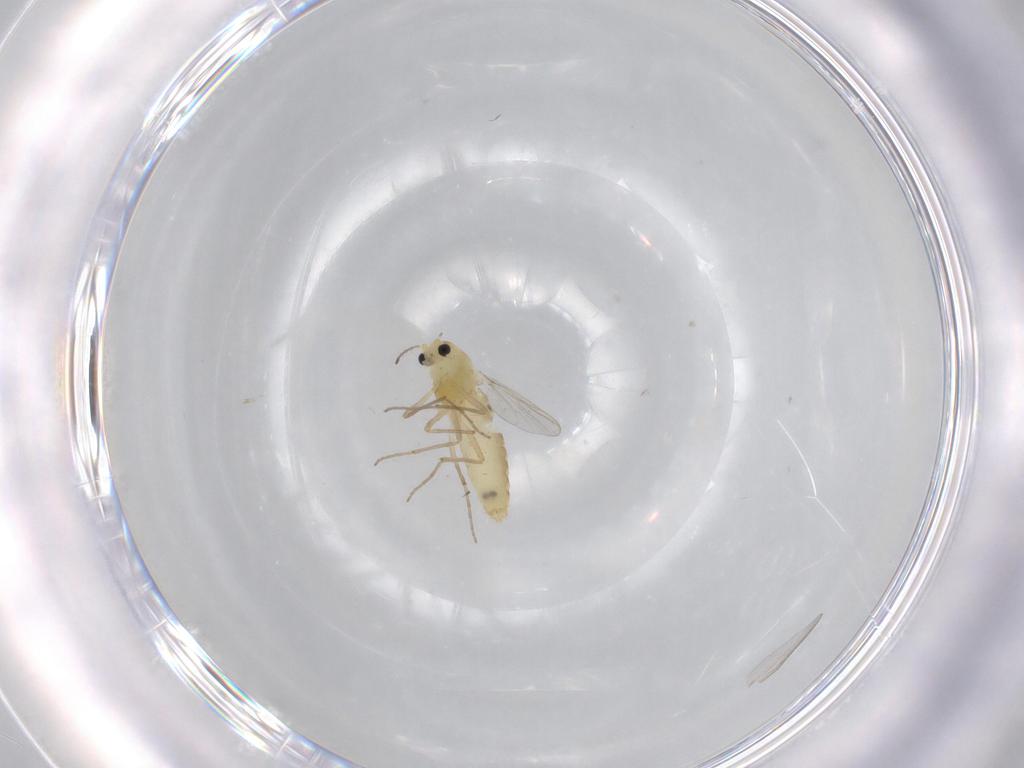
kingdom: Animalia
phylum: Arthropoda
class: Insecta
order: Diptera
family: Chironomidae
